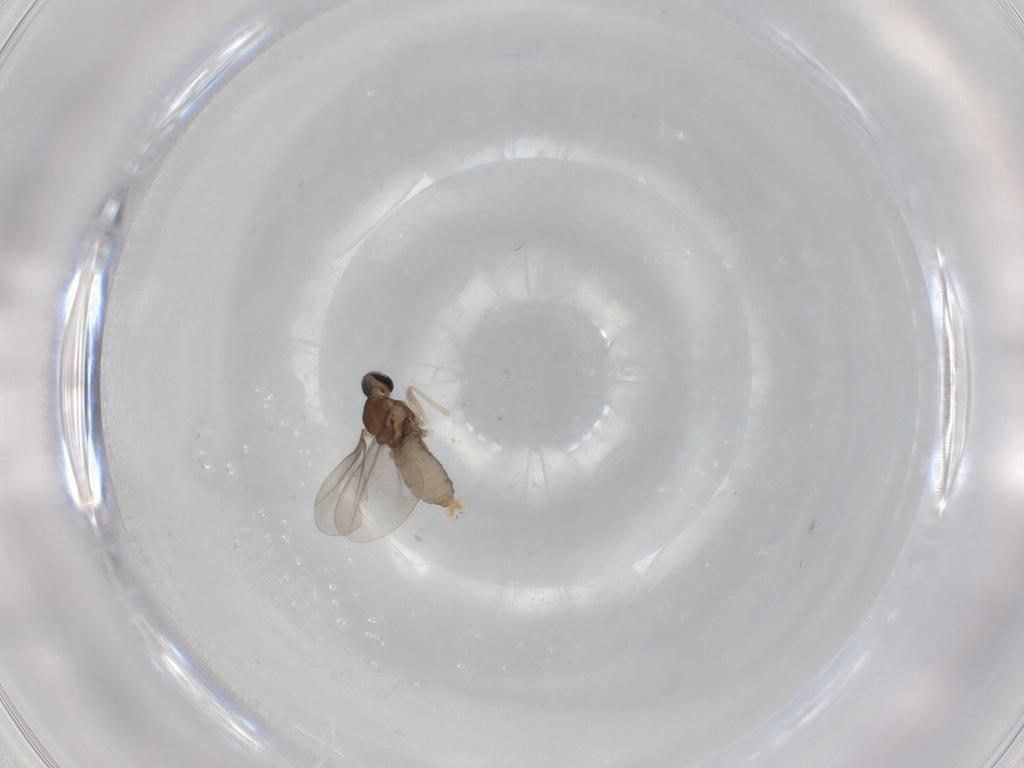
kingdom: Animalia
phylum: Arthropoda
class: Insecta
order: Diptera
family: Cecidomyiidae
